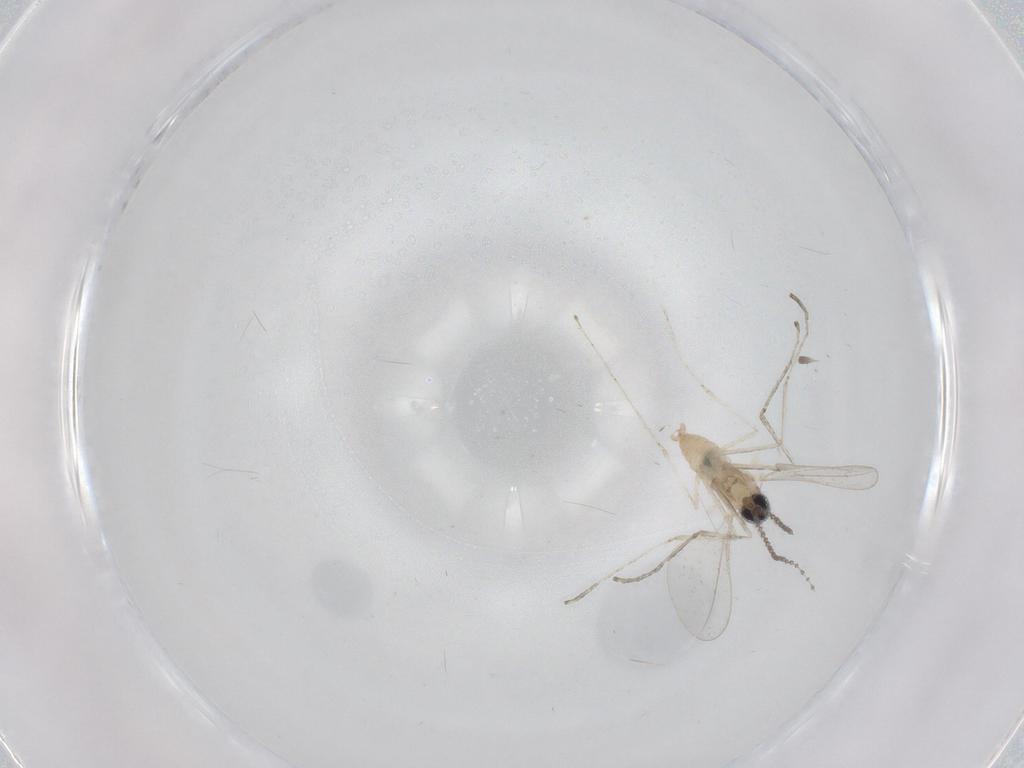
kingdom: Animalia
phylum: Arthropoda
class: Insecta
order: Diptera
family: Cecidomyiidae
